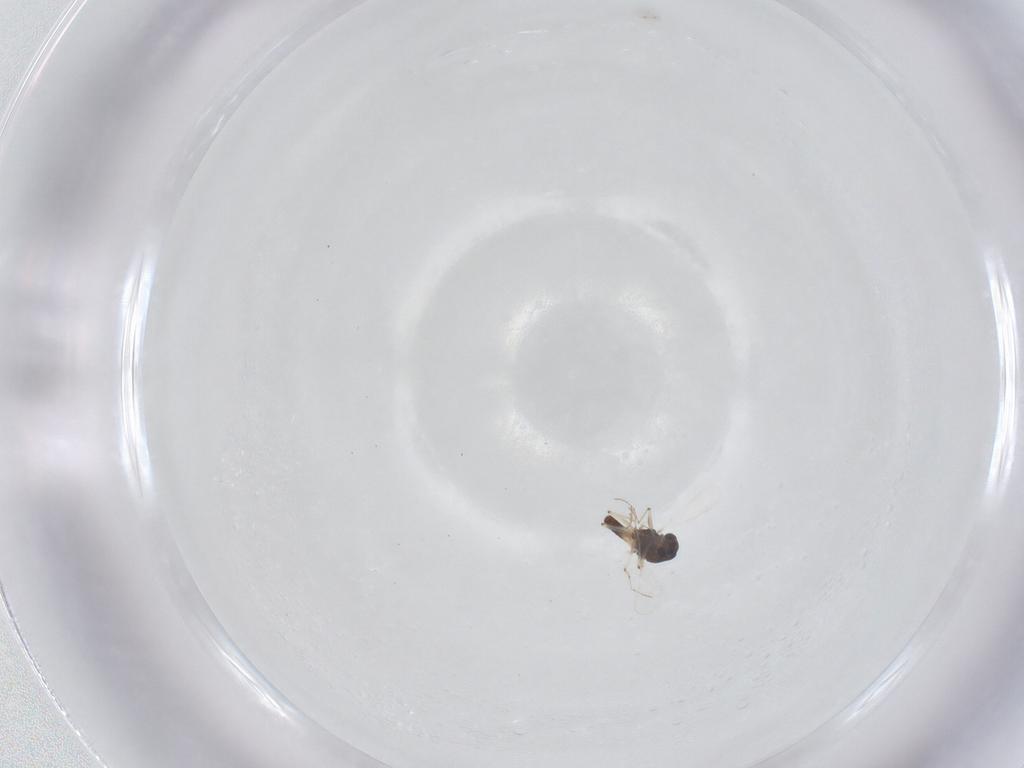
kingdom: Animalia
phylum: Arthropoda
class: Insecta
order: Diptera
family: Chironomidae
